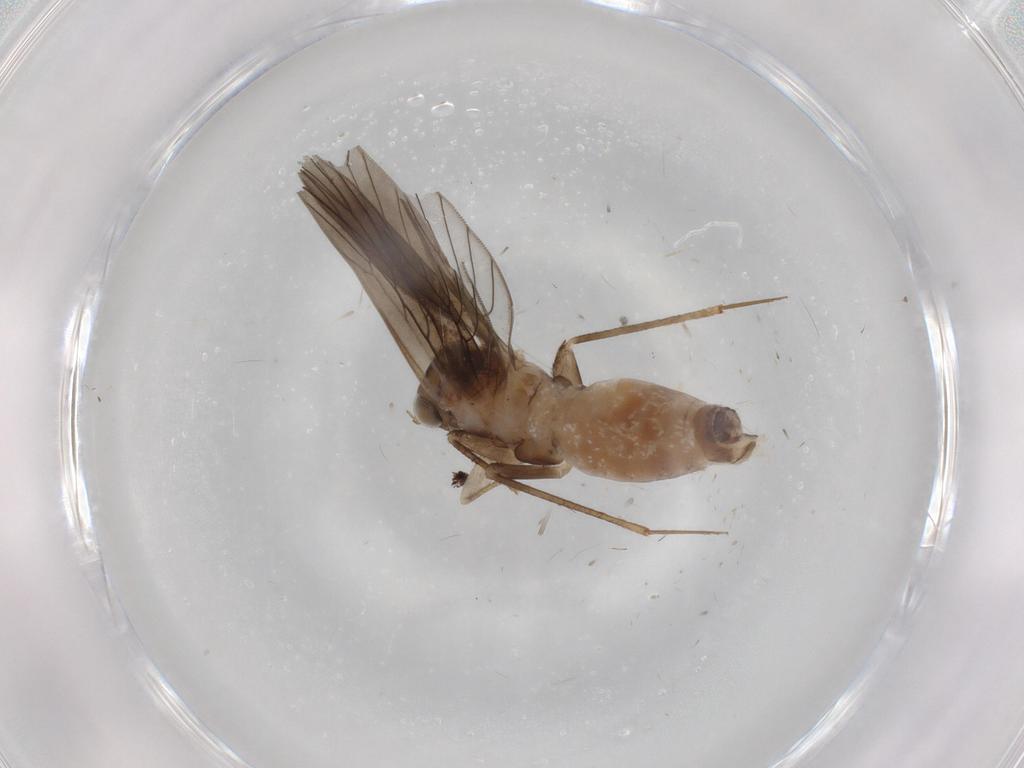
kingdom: Animalia
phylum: Arthropoda
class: Insecta
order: Psocodea
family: Lepidopsocidae
